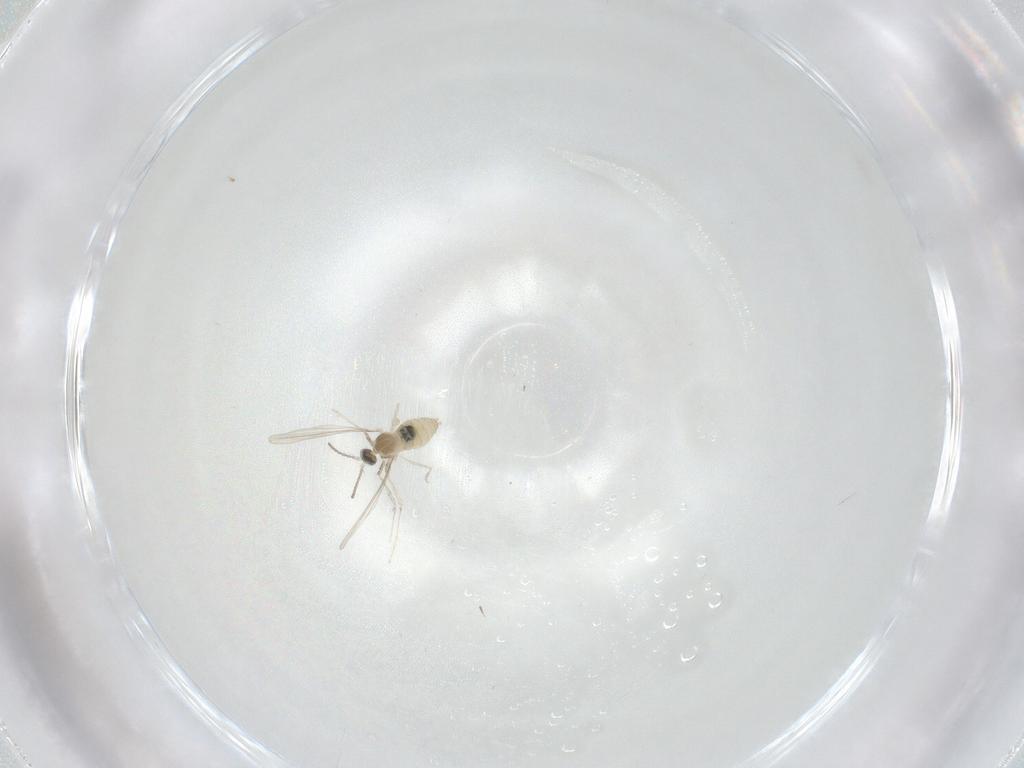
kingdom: Animalia
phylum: Arthropoda
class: Insecta
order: Diptera
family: Cecidomyiidae
